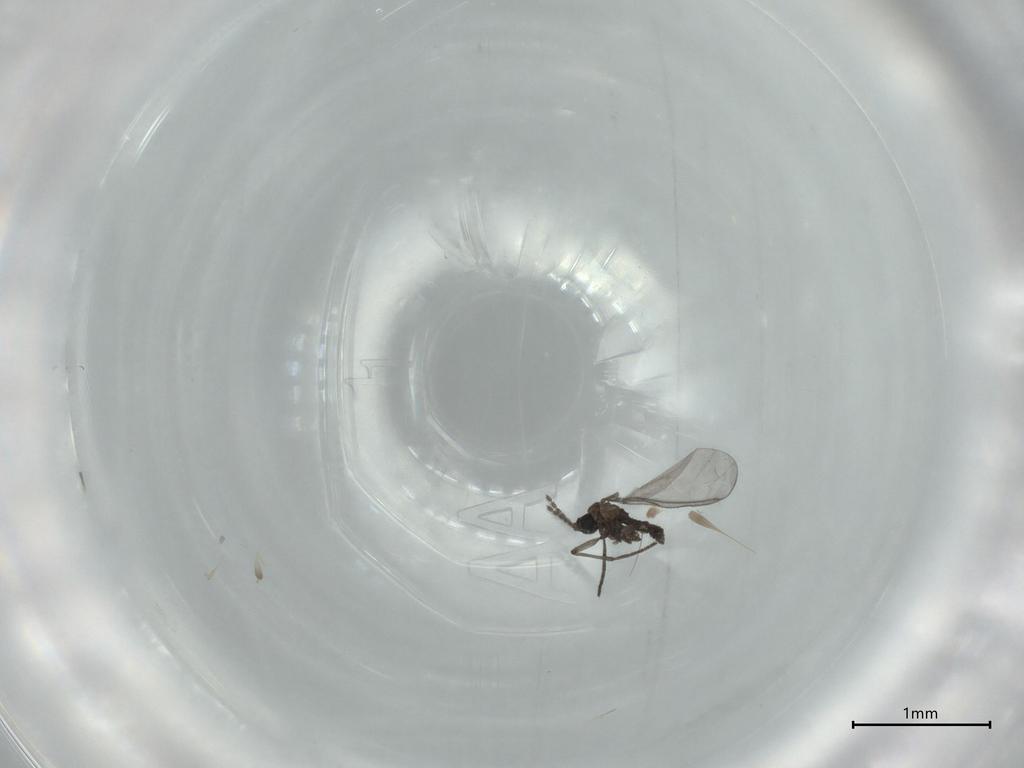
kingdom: Animalia
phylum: Arthropoda
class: Insecta
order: Diptera
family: Sciaridae
